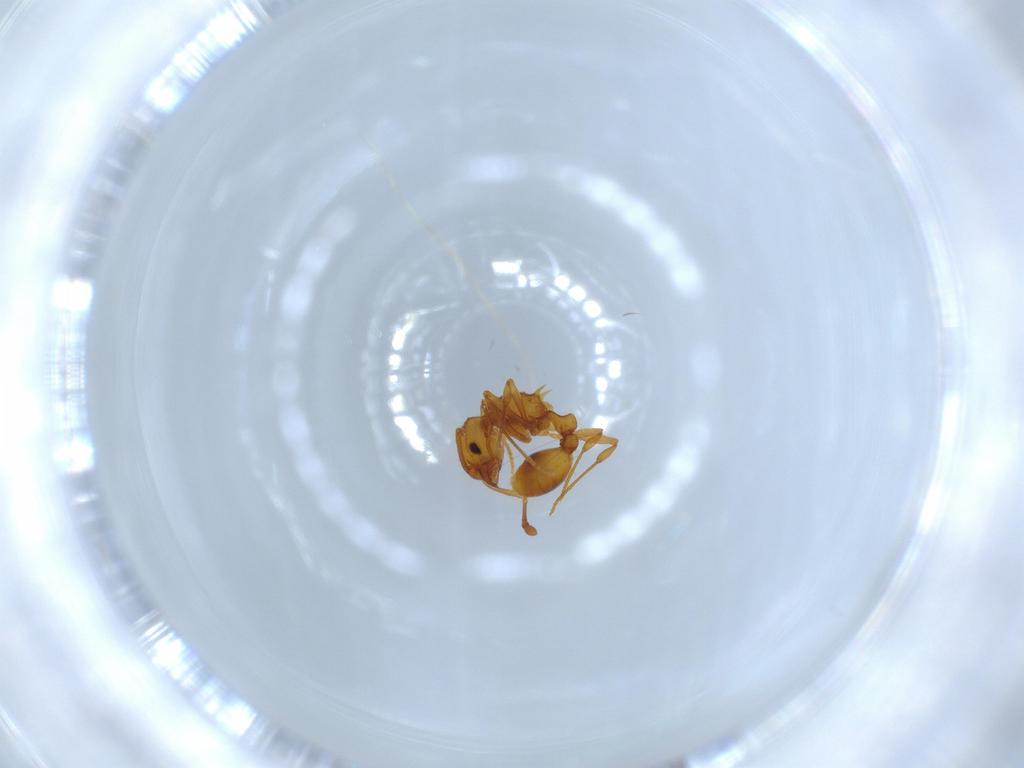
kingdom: Animalia
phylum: Arthropoda
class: Insecta
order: Hymenoptera
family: Formicidae
